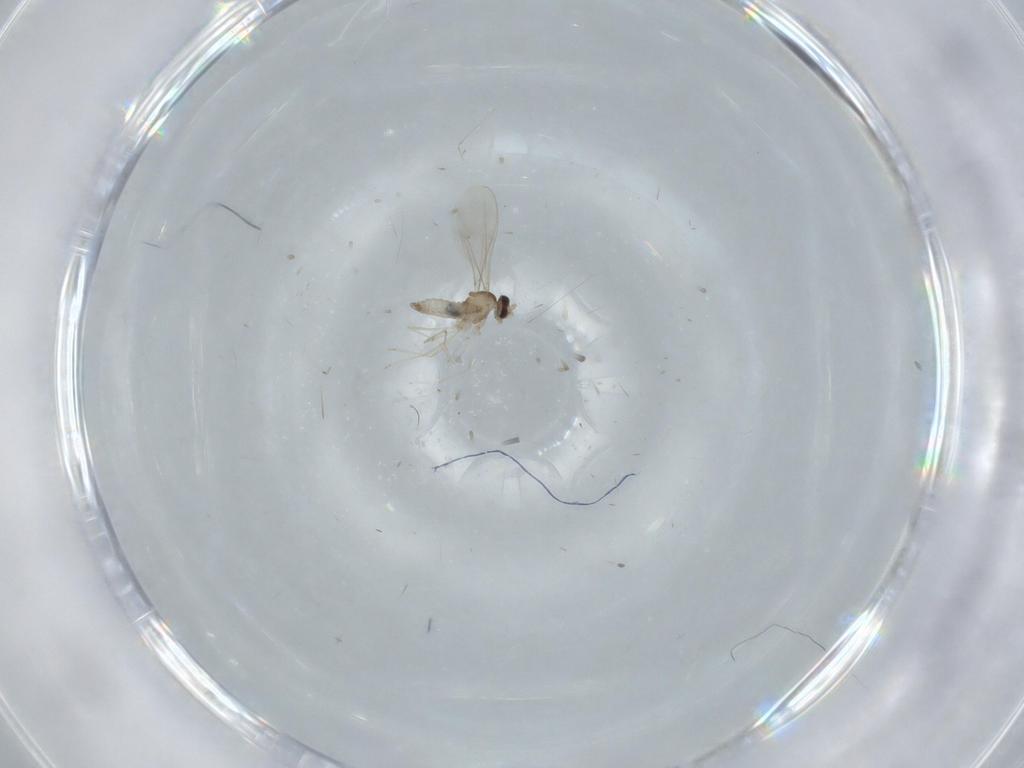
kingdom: Animalia
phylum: Arthropoda
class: Insecta
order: Diptera
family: Cecidomyiidae
